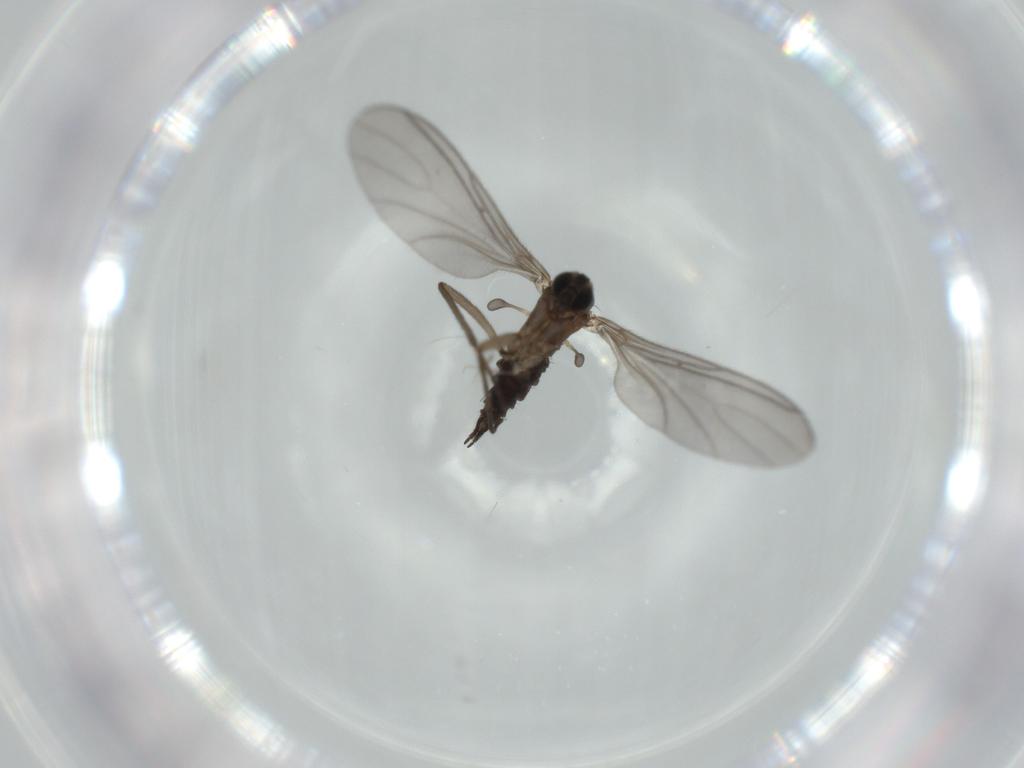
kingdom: Animalia
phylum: Arthropoda
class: Insecta
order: Diptera
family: Sciaridae
